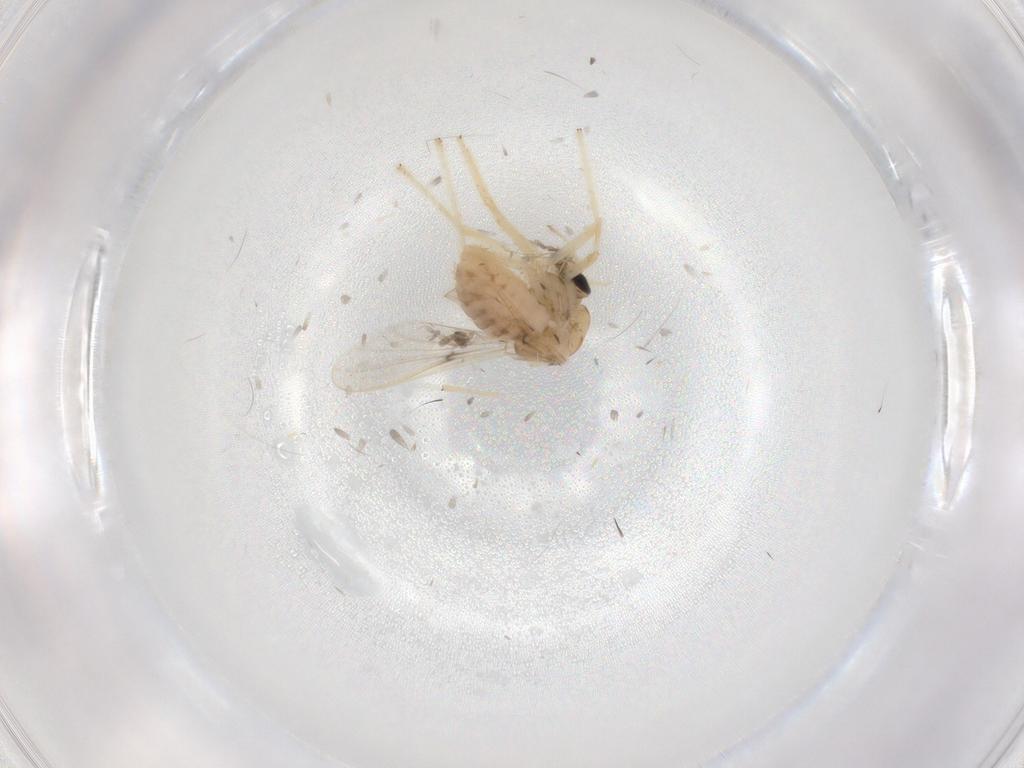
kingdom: Animalia
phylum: Arthropoda
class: Insecta
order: Diptera
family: Chironomidae
